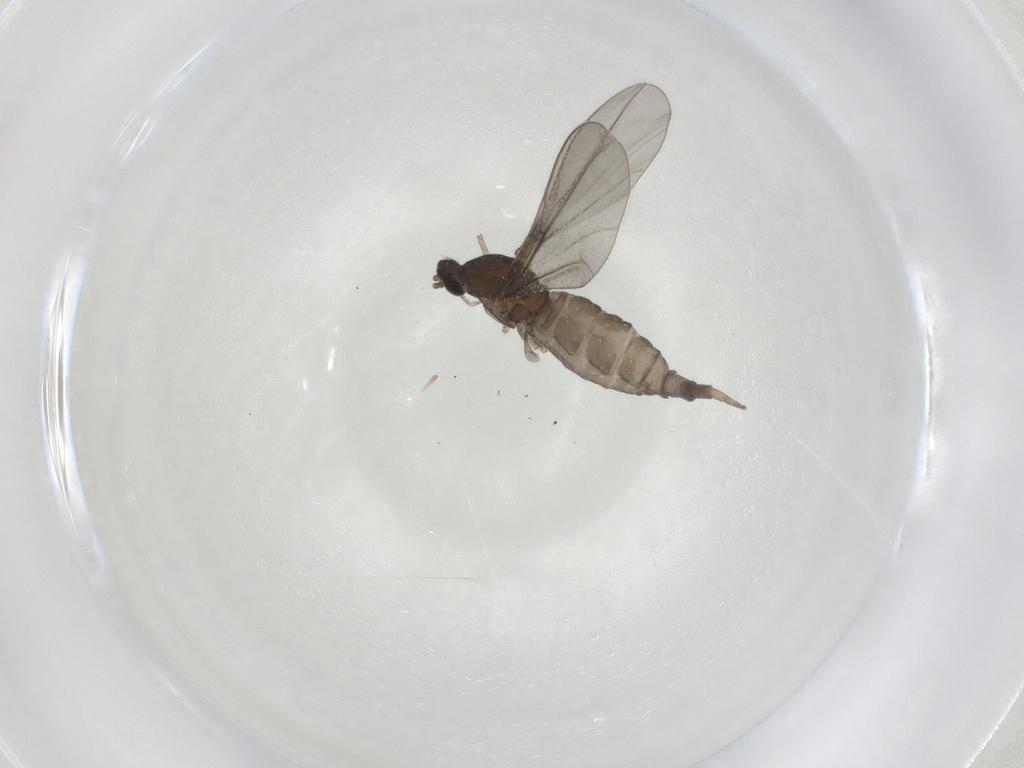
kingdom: Animalia
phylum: Arthropoda
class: Insecta
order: Diptera
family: Cecidomyiidae
